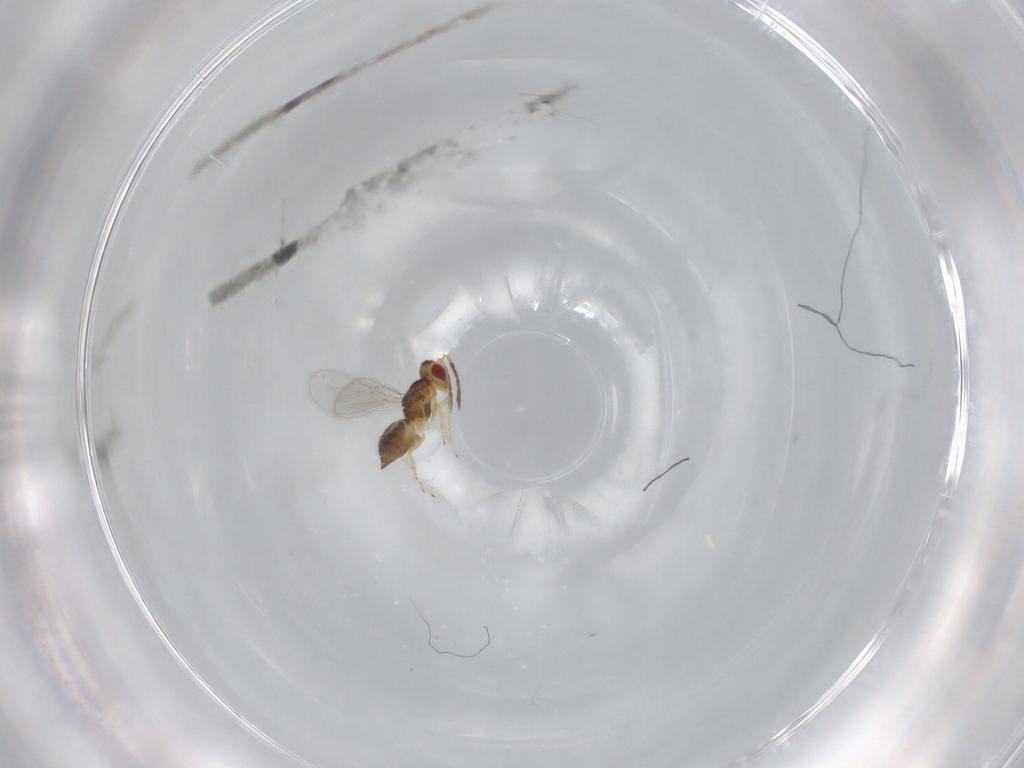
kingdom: Animalia
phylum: Arthropoda
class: Insecta
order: Hymenoptera
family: Eulophidae
